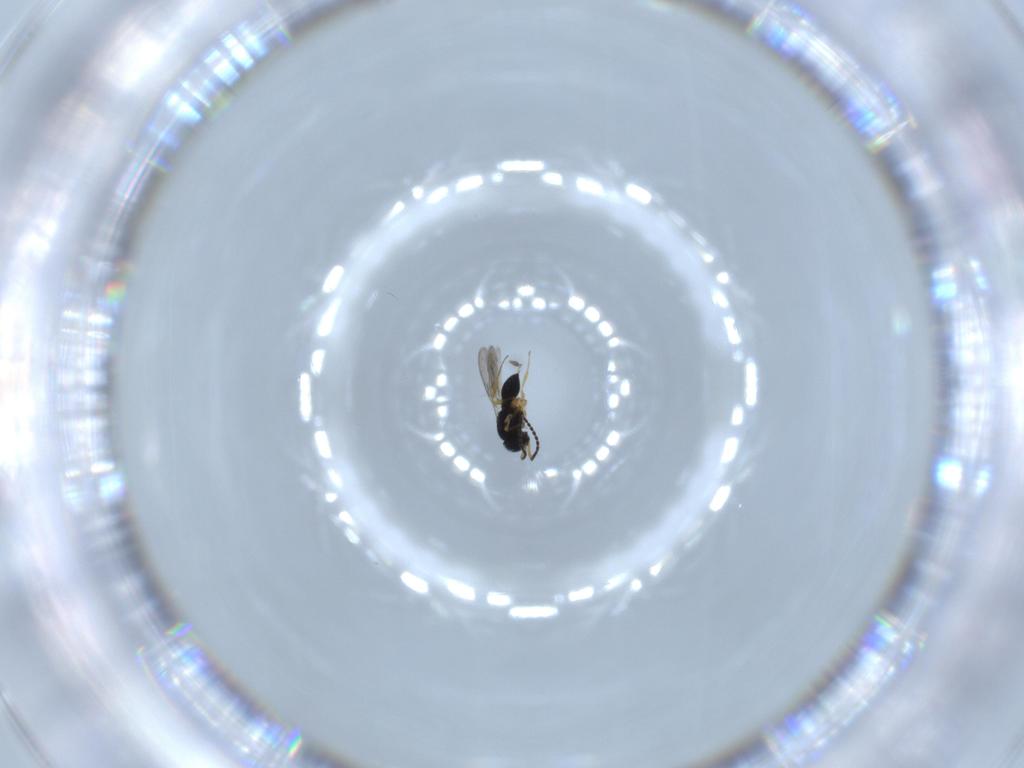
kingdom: Animalia
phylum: Arthropoda
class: Insecta
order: Hymenoptera
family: Scelionidae
